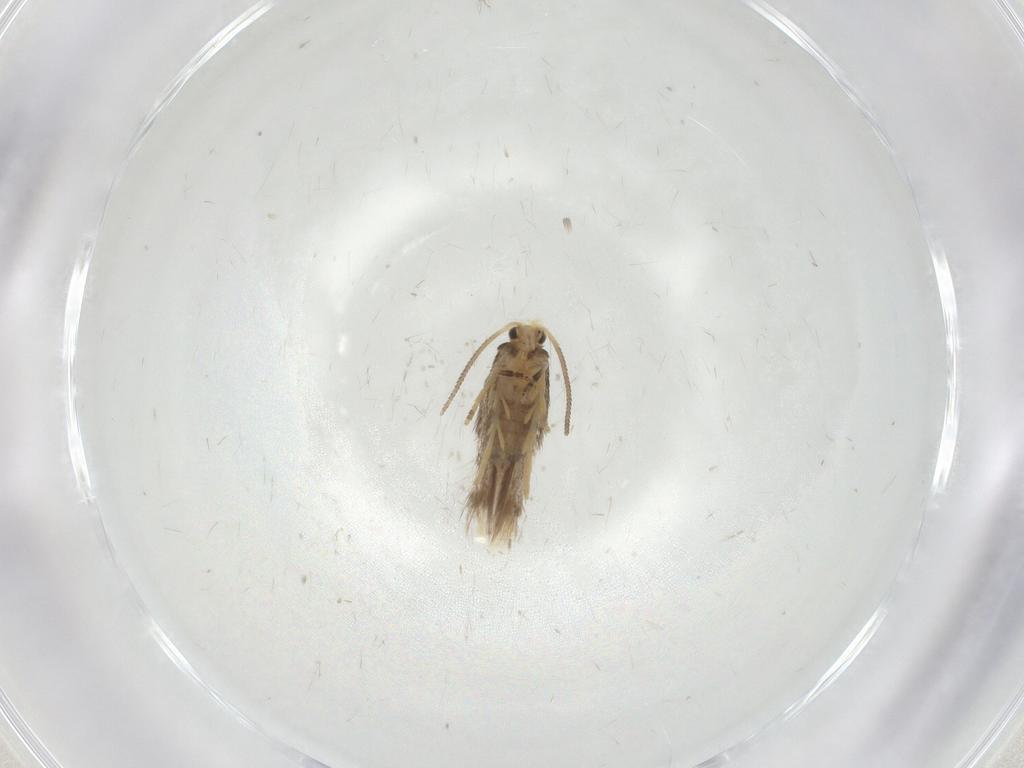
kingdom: Animalia
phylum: Arthropoda
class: Insecta
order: Lepidoptera
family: Nepticulidae
